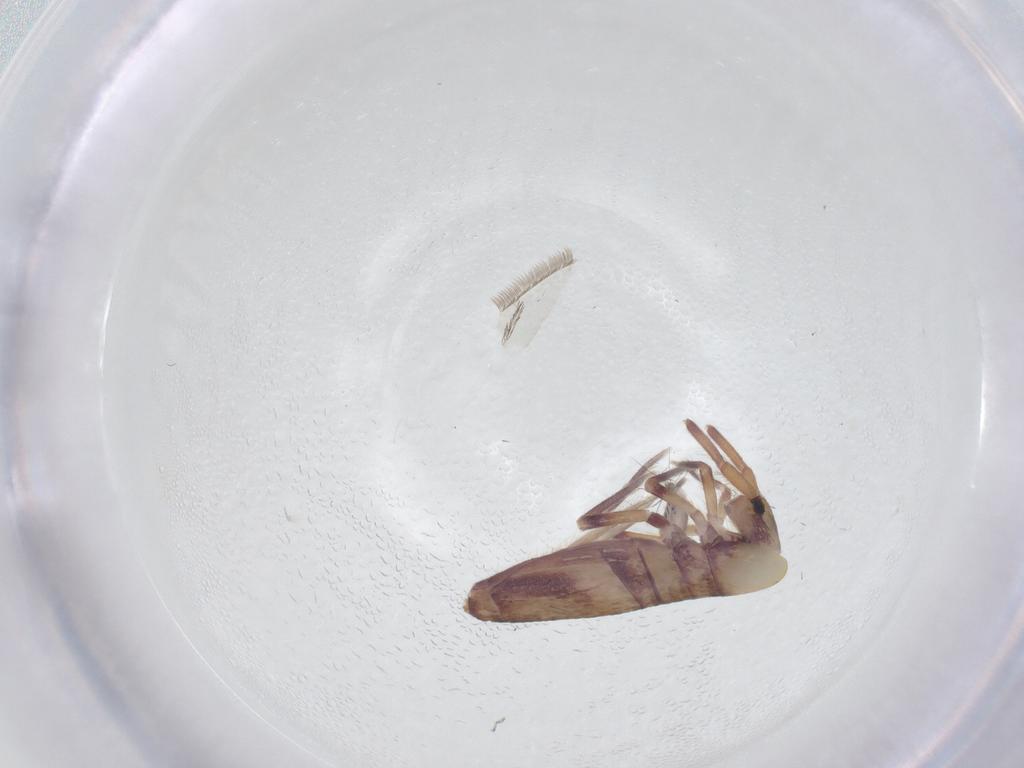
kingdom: Animalia
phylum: Arthropoda
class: Collembola
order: Entomobryomorpha
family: Entomobryidae
